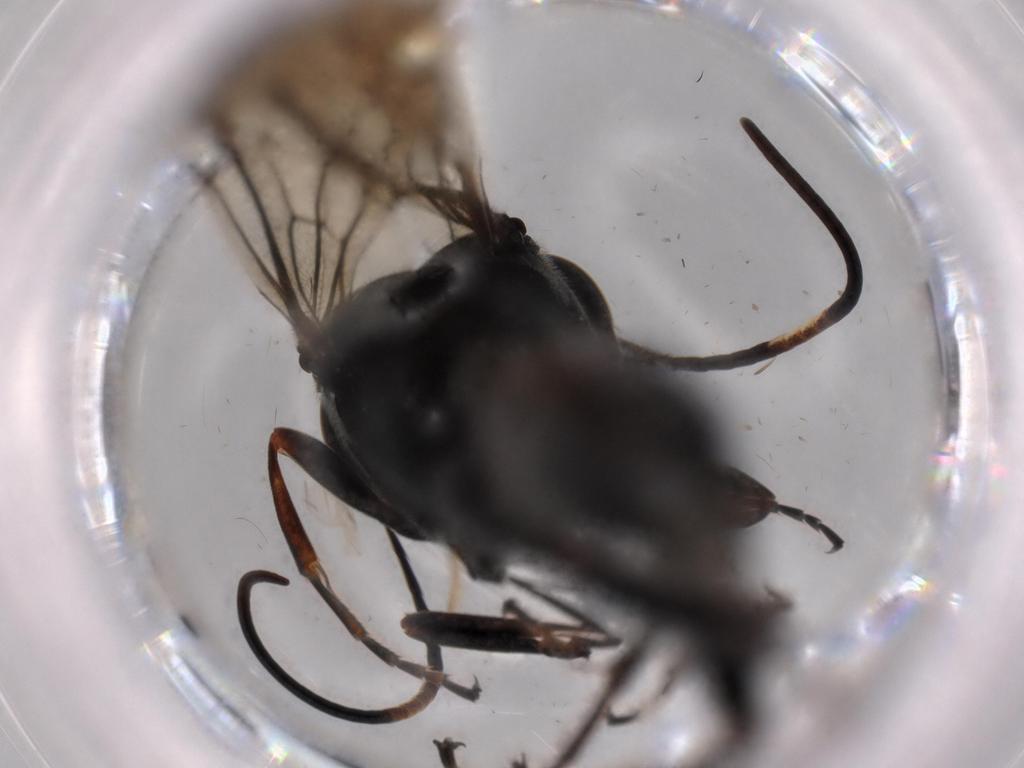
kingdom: Animalia
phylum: Arthropoda
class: Insecta
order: Hymenoptera
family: Ichneumonidae
